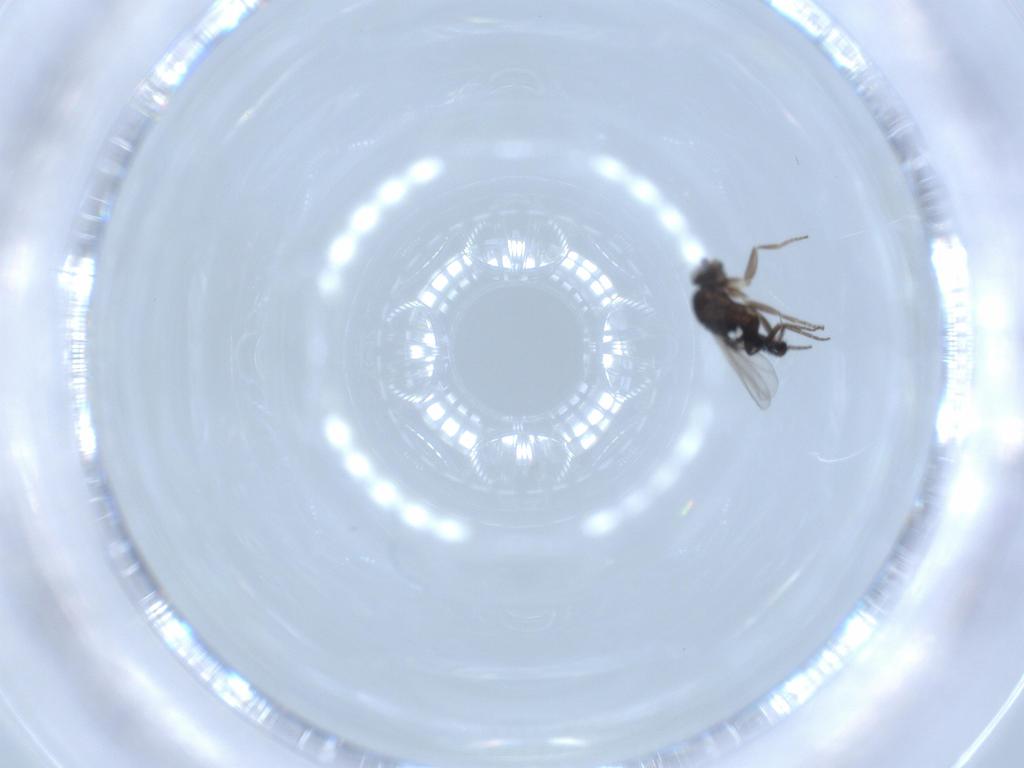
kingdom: Animalia
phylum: Arthropoda
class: Insecta
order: Diptera
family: Phoridae
